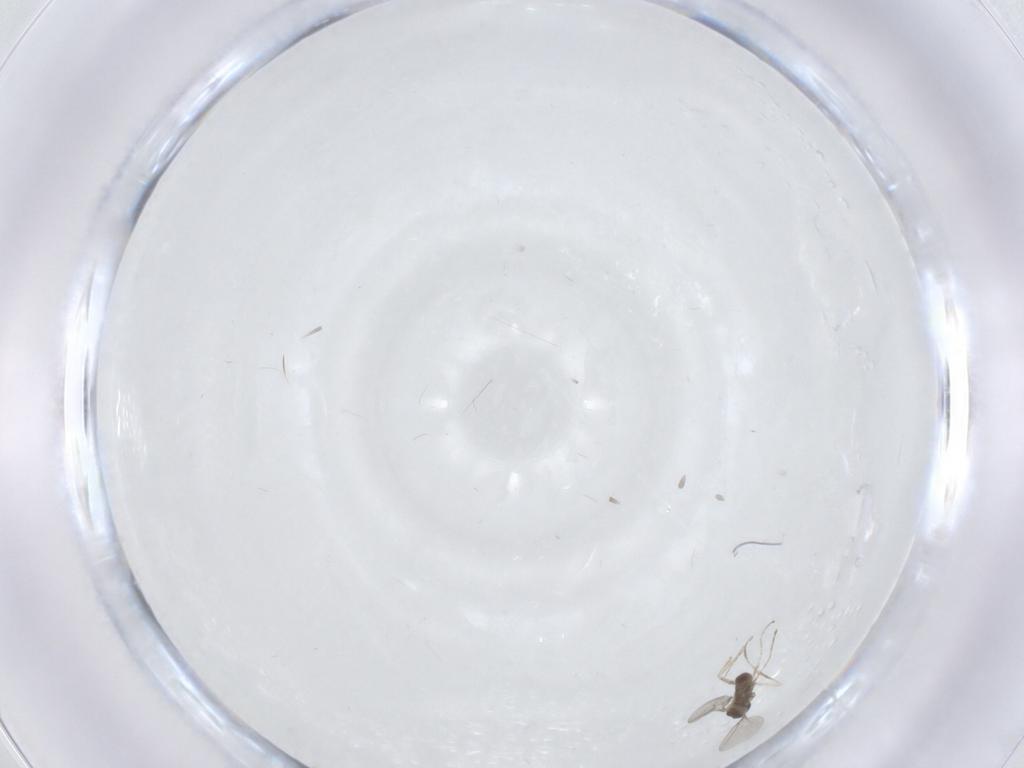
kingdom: Animalia
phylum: Arthropoda
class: Insecta
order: Diptera
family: Cecidomyiidae
